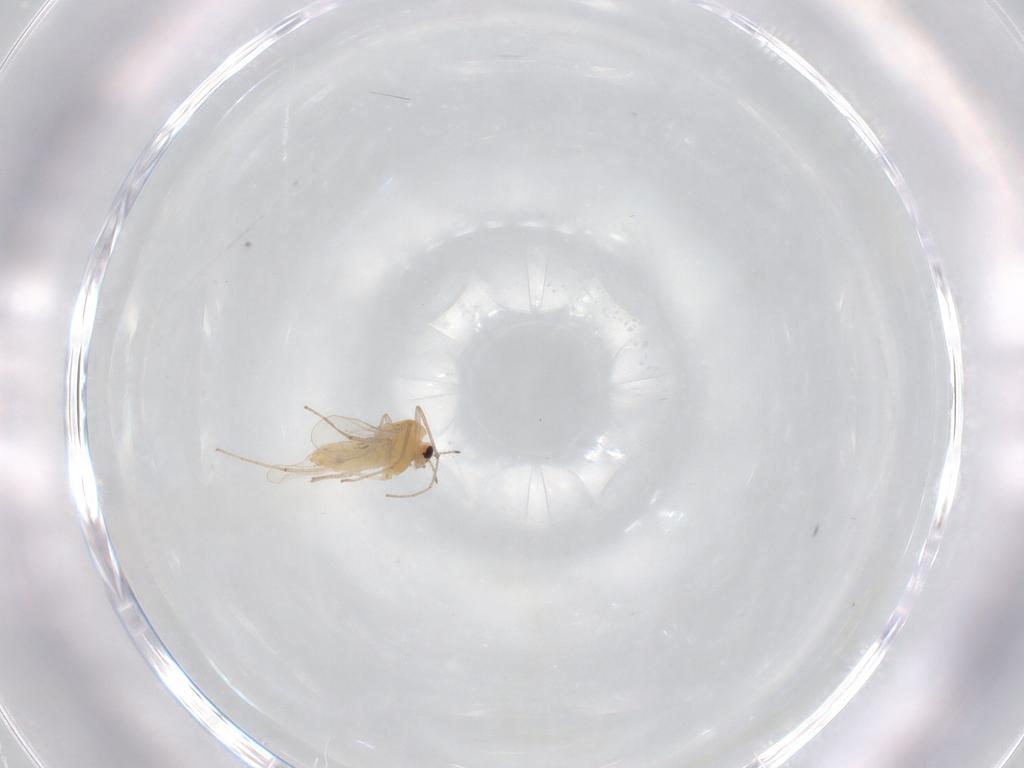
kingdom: Animalia
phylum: Arthropoda
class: Insecta
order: Diptera
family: Chironomidae
